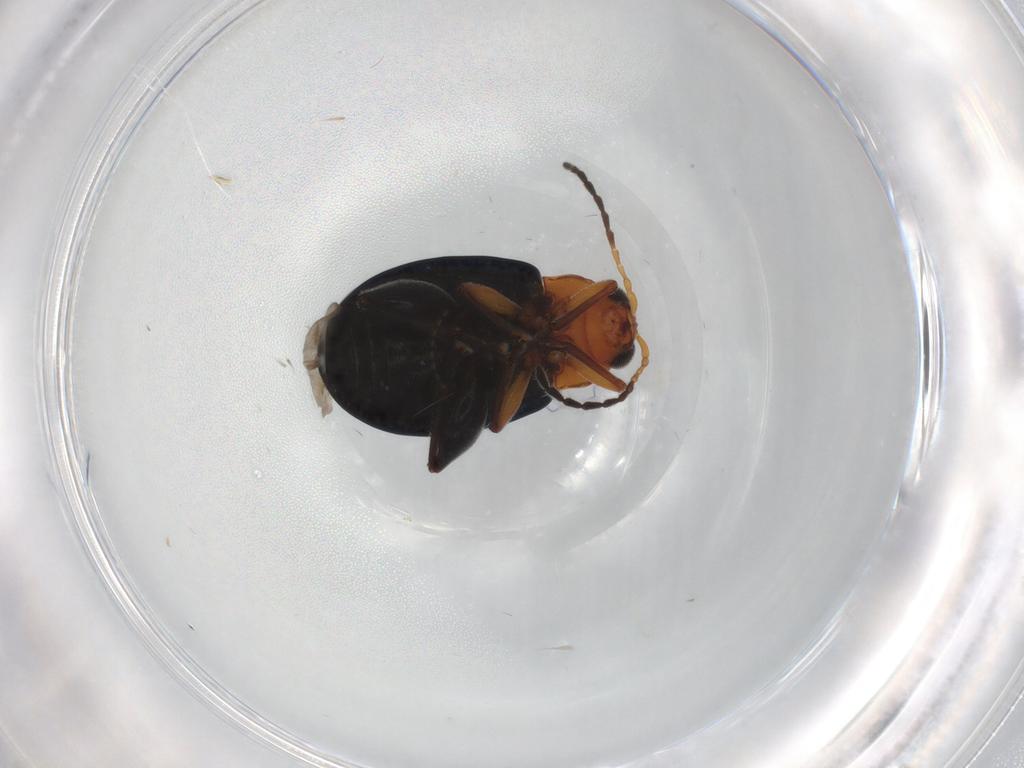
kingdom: Animalia
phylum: Arthropoda
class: Insecta
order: Coleoptera
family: Chrysomelidae
